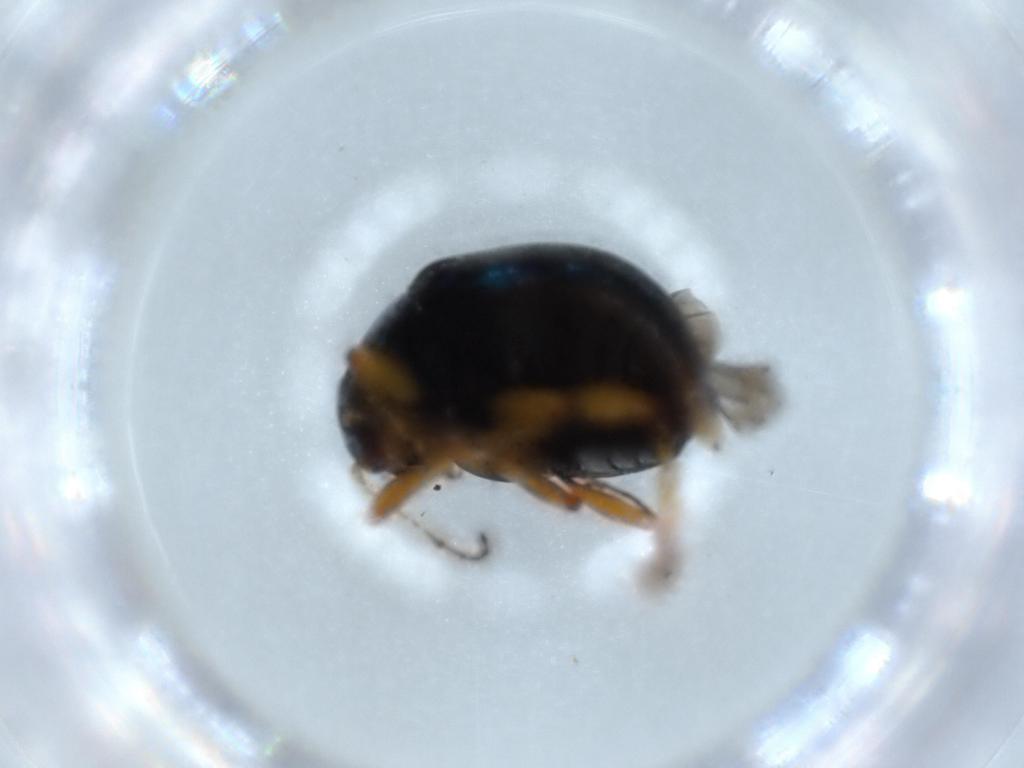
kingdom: Animalia
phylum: Arthropoda
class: Insecta
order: Coleoptera
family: Chrysomelidae
